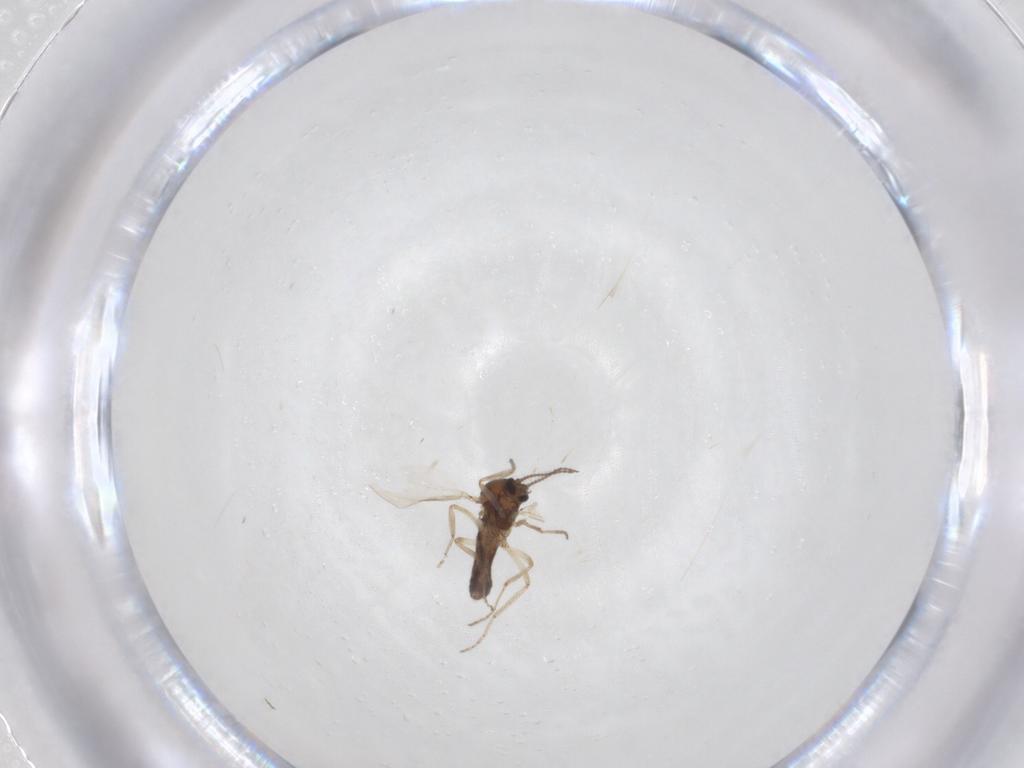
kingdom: Animalia
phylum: Arthropoda
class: Insecta
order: Diptera
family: Ceratopogonidae
